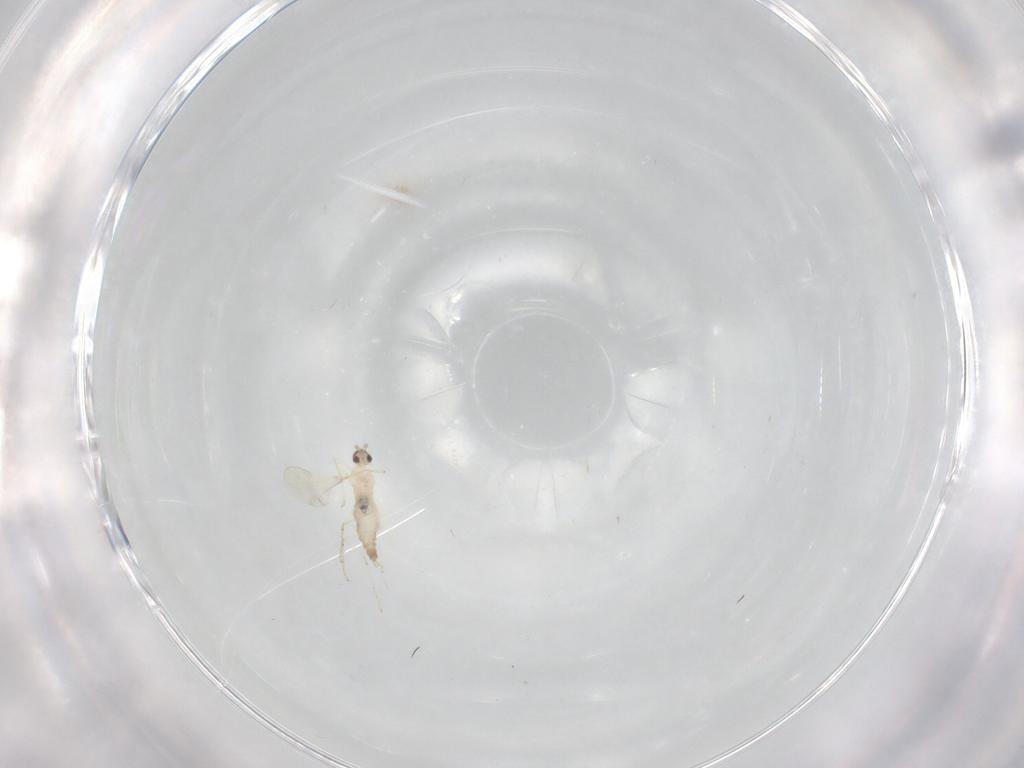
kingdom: Animalia
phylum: Arthropoda
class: Insecta
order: Diptera
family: Cecidomyiidae
